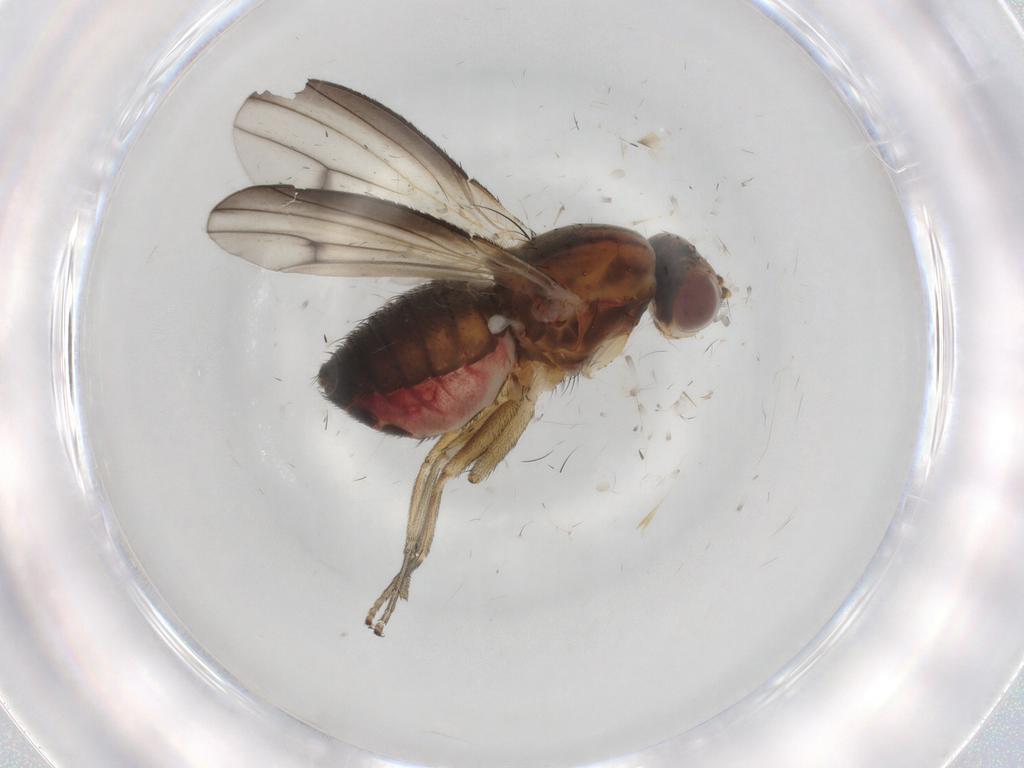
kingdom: Animalia
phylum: Arthropoda
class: Insecta
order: Diptera
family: Heleomyzidae
